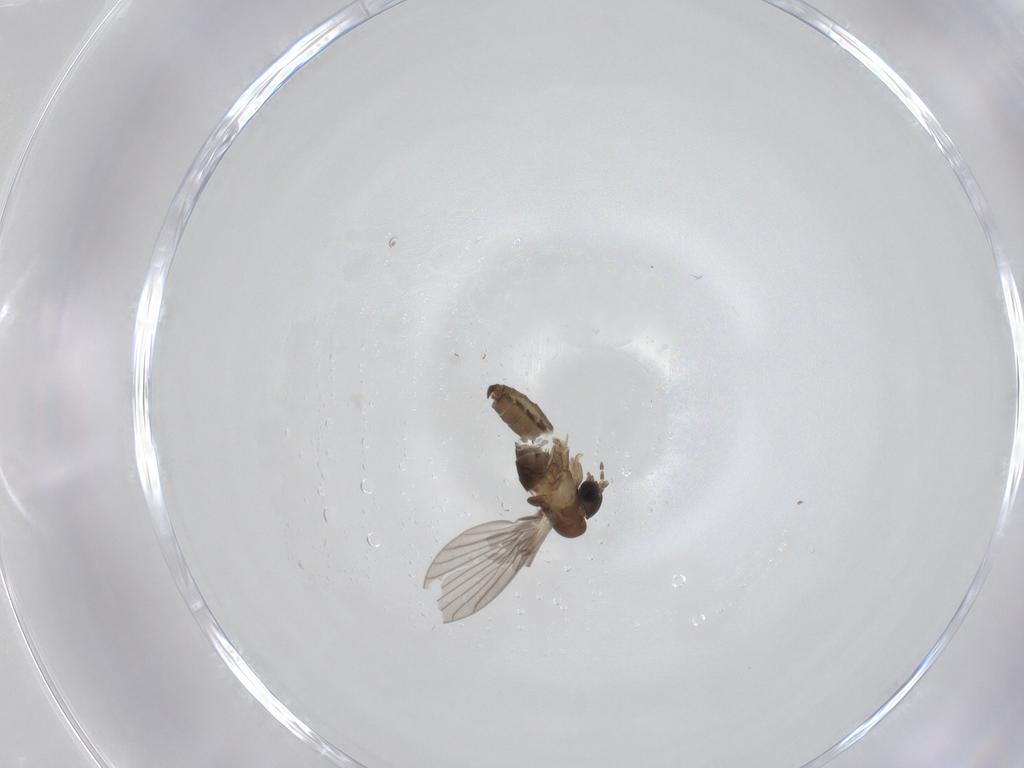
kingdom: Animalia
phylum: Arthropoda
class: Insecta
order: Diptera
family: Sciaridae
